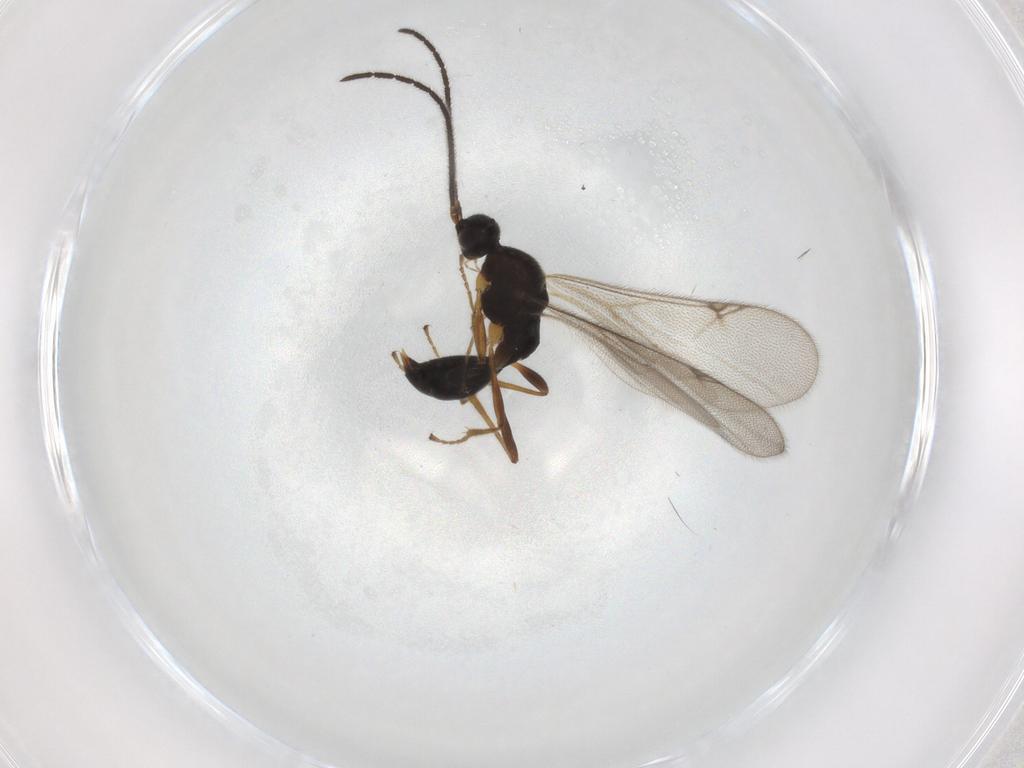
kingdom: Animalia
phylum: Arthropoda
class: Insecta
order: Hymenoptera
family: Proctotrupidae
